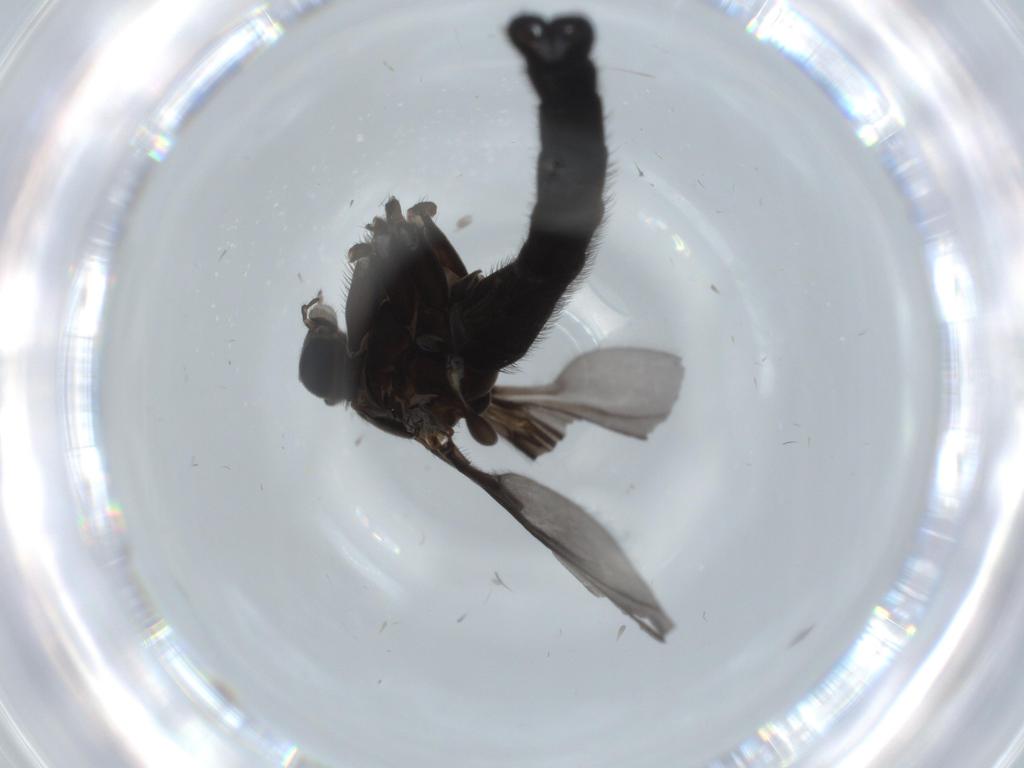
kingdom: Animalia
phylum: Arthropoda
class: Insecta
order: Diptera
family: Sciaridae
